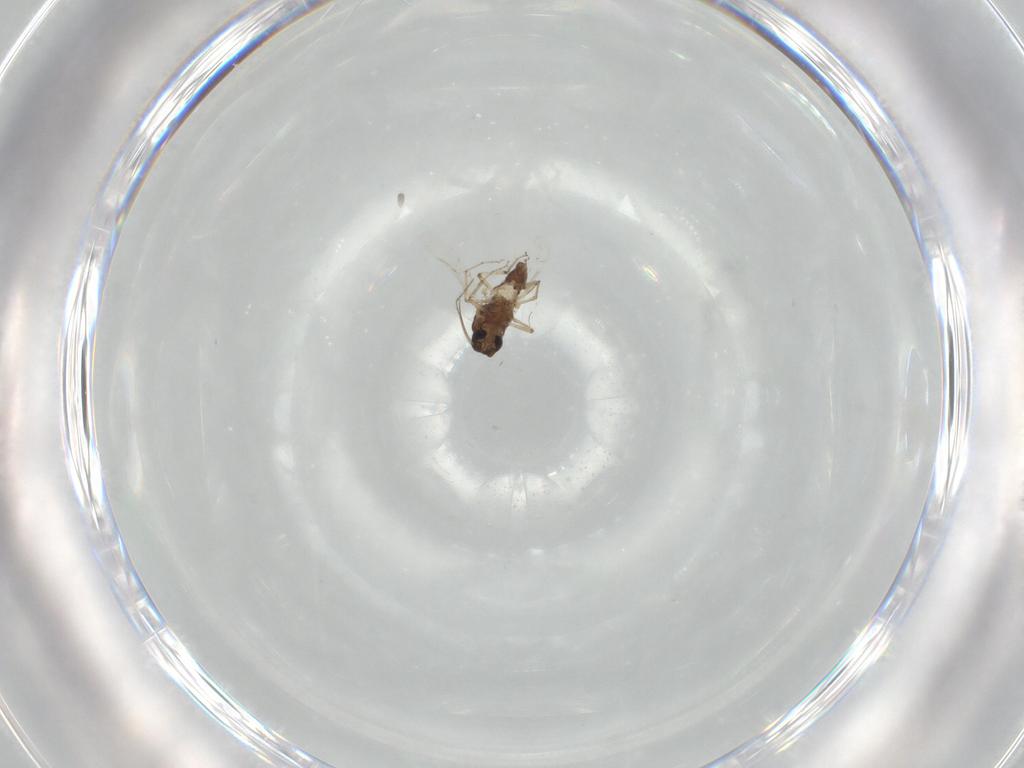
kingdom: Animalia
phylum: Arthropoda
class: Insecta
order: Diptera
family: Ceratopogonidae
